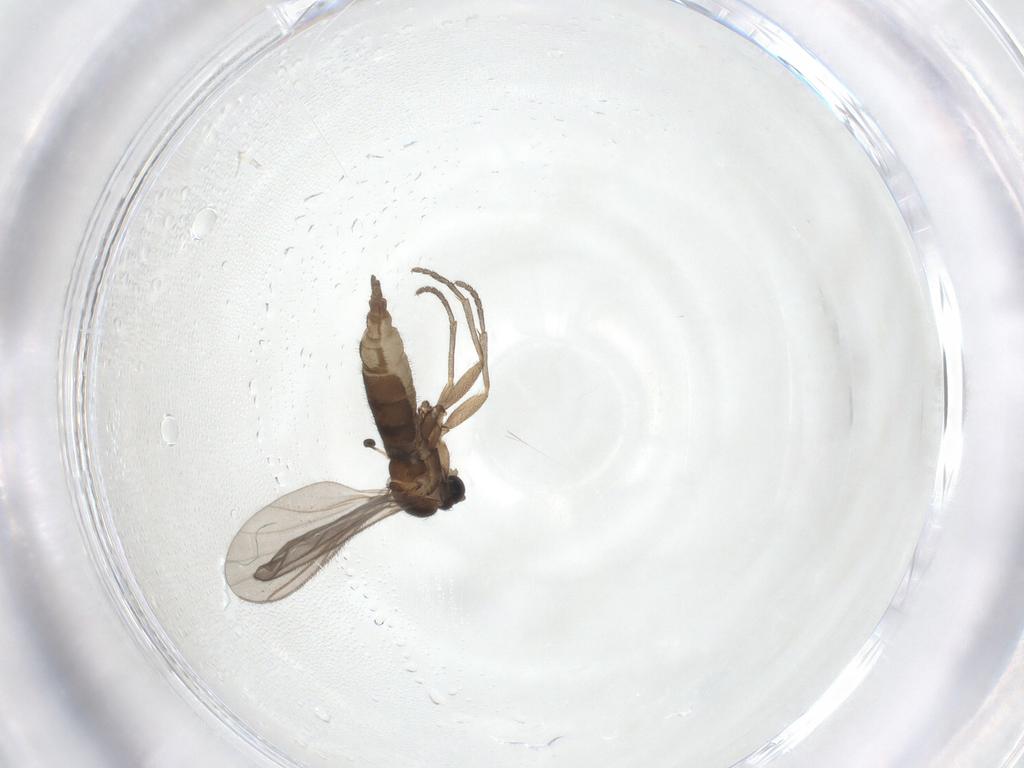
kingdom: Animalia
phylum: Arthropoda
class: Insecta
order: Diptera
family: Sciaridae
